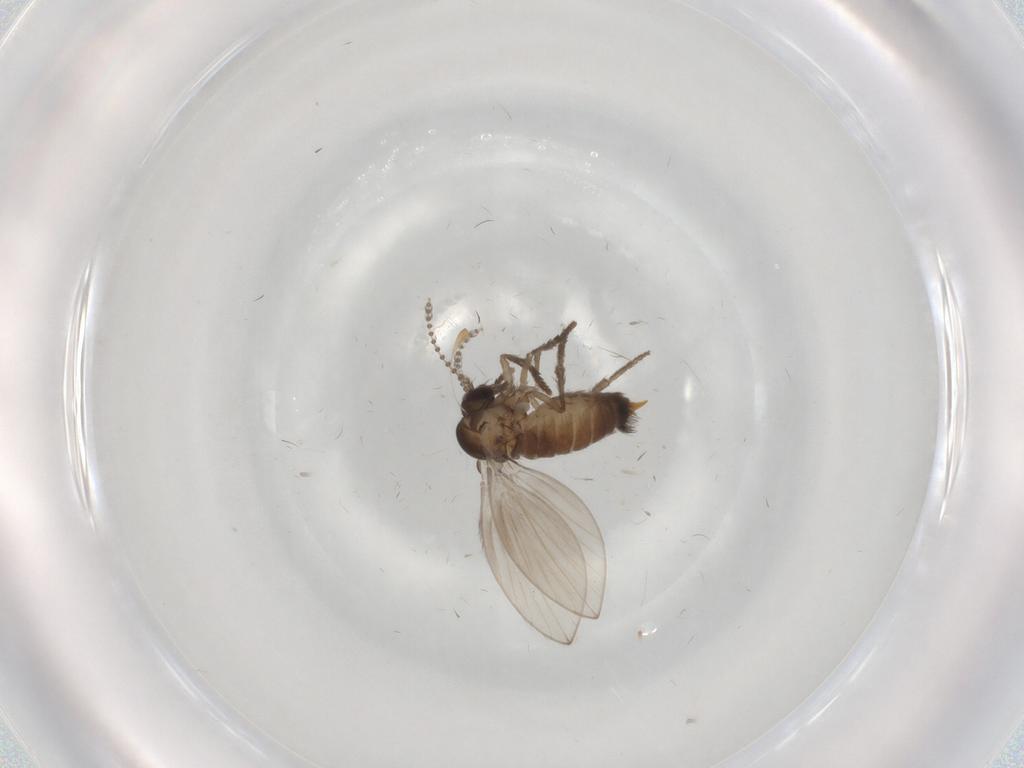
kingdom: Animalia
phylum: Arthropoda
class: Insecta
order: Diptera
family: Psychodidae
